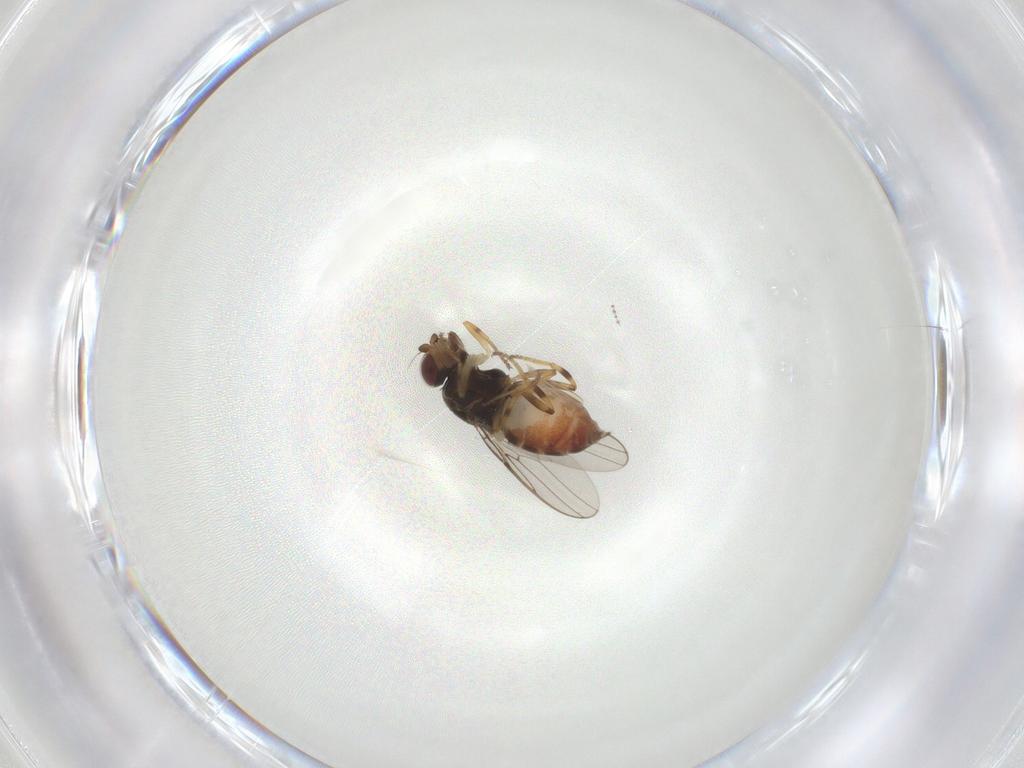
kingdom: Animalia
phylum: Arthropoda
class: Insecta
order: Diptera
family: Chloropidae
